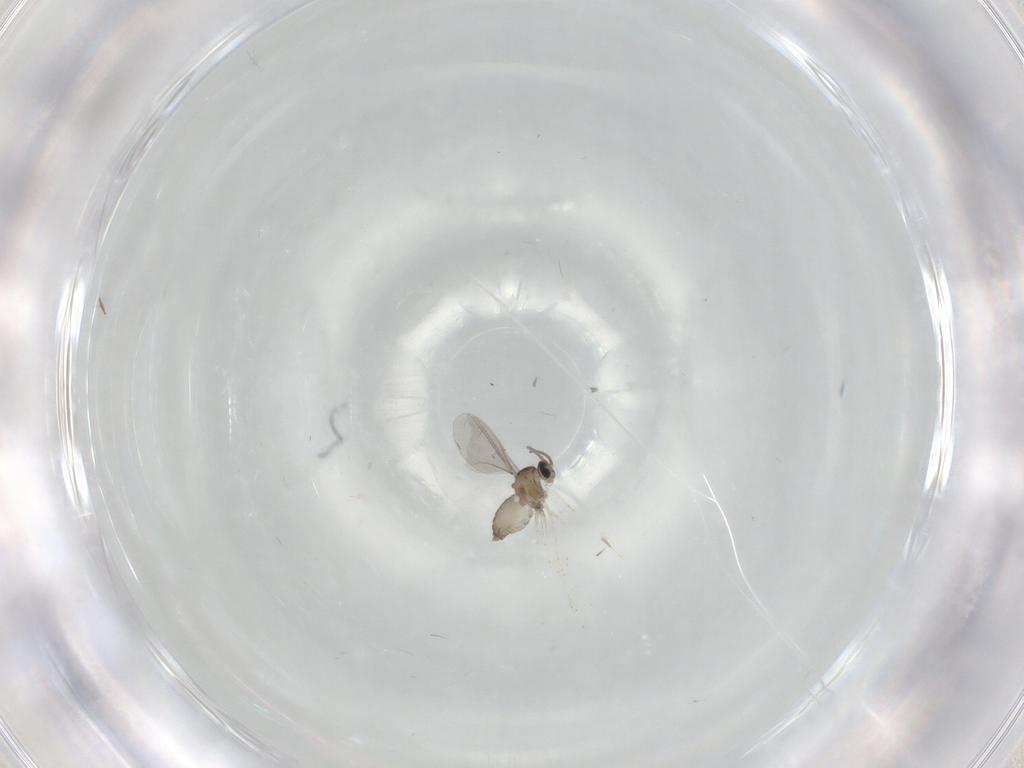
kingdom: Animalia
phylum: Arthropoda
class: Insecta
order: Diptera
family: Cecidomyiidae
